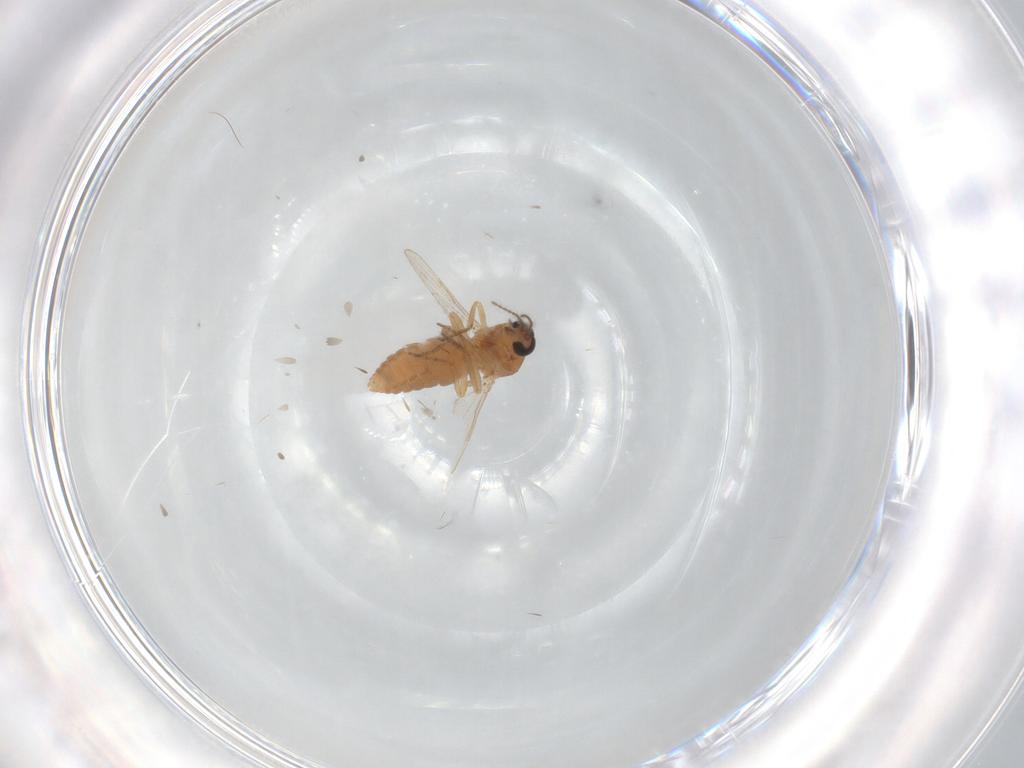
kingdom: Animalia
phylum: Arthropoda
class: Insecta
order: Diptera
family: Ceratopogonidae
